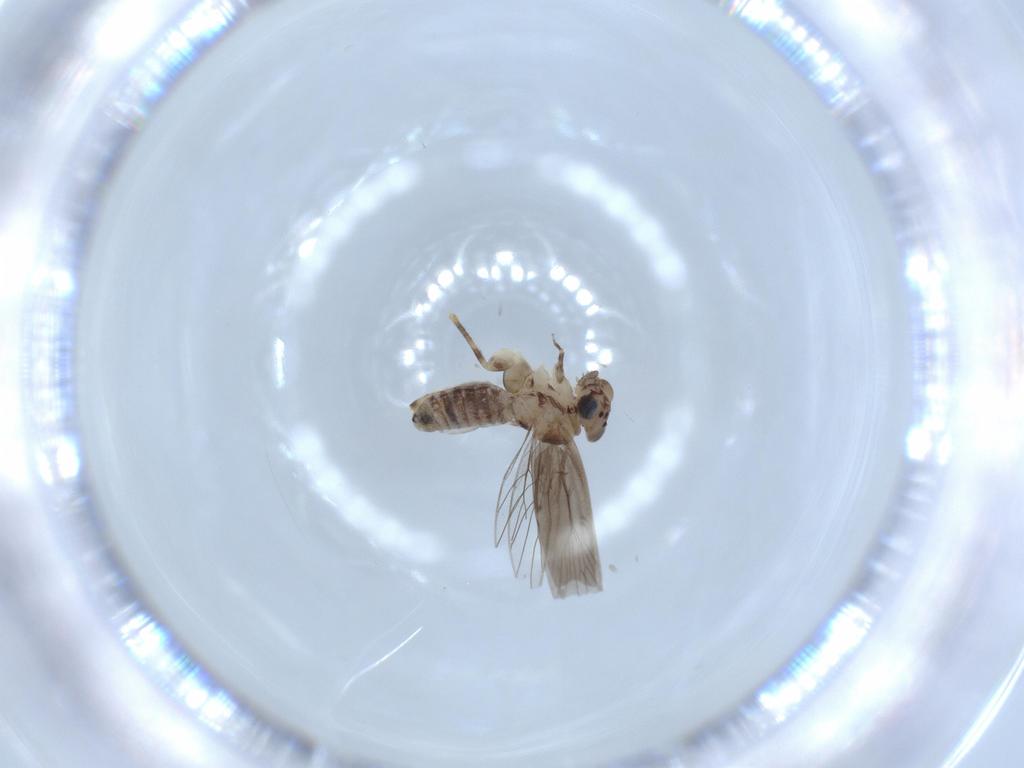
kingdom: Animalia
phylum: Arthropoda
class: Insecta
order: Psocodea
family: Lepidopsocidae
